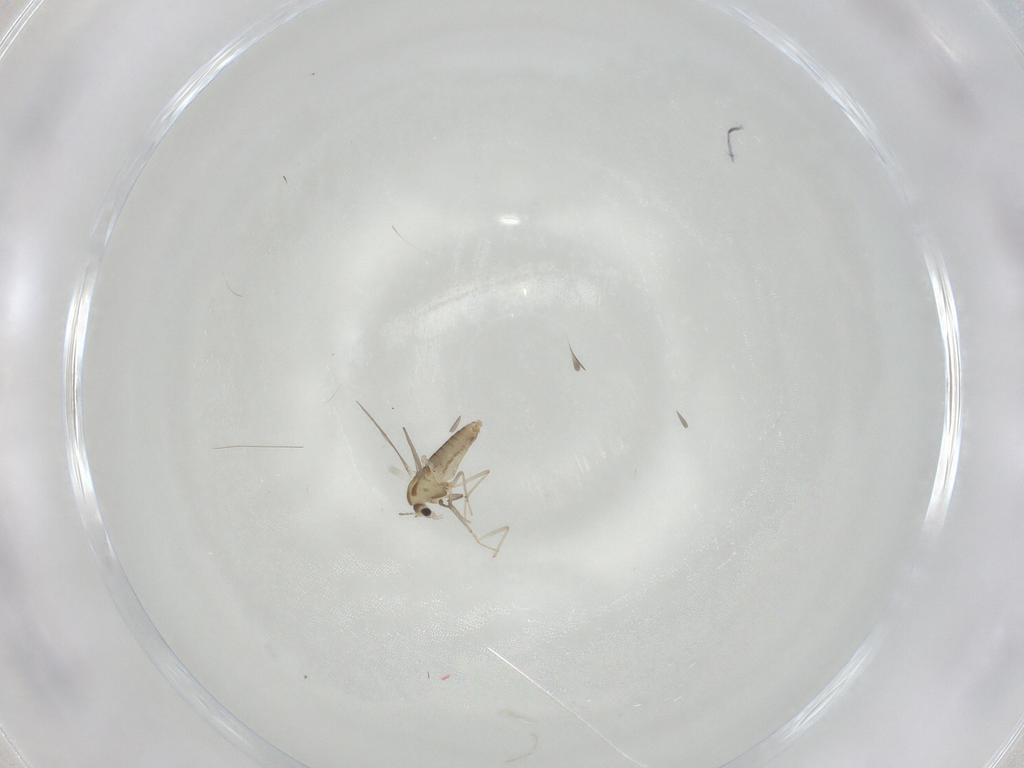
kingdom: Animalia
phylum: Arthropoda
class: Insecta
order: Diptera
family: Chironomidae
